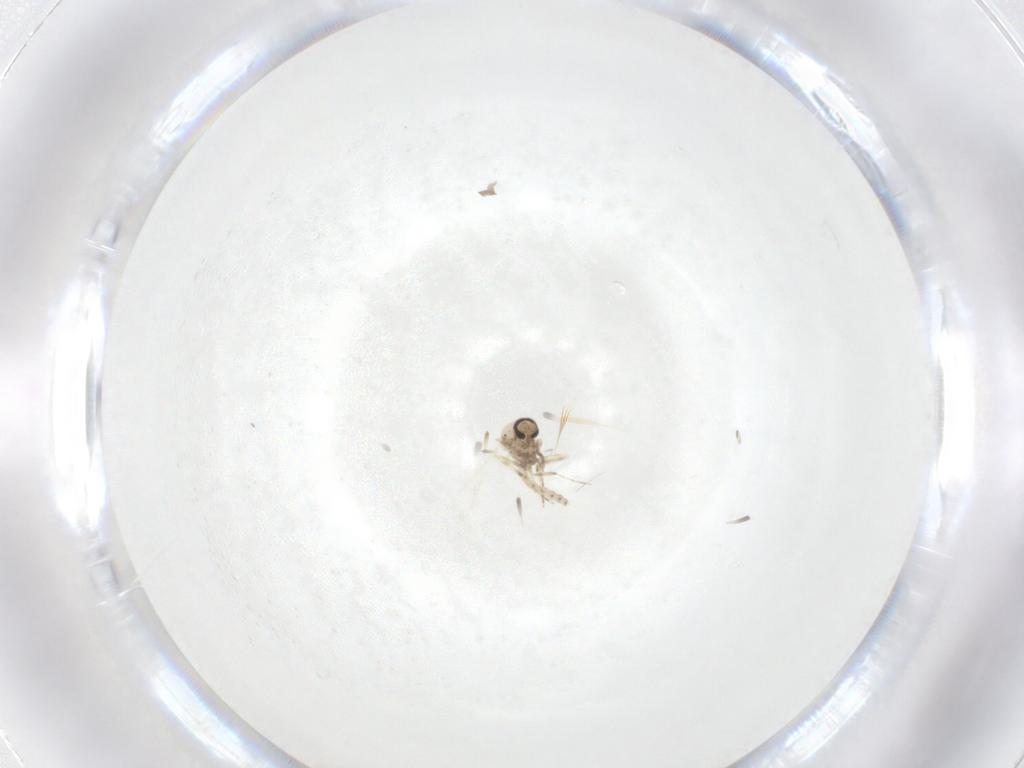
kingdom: Animalia
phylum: Arthropoda
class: Insecta
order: Diptera
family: Ceratopogonidae
